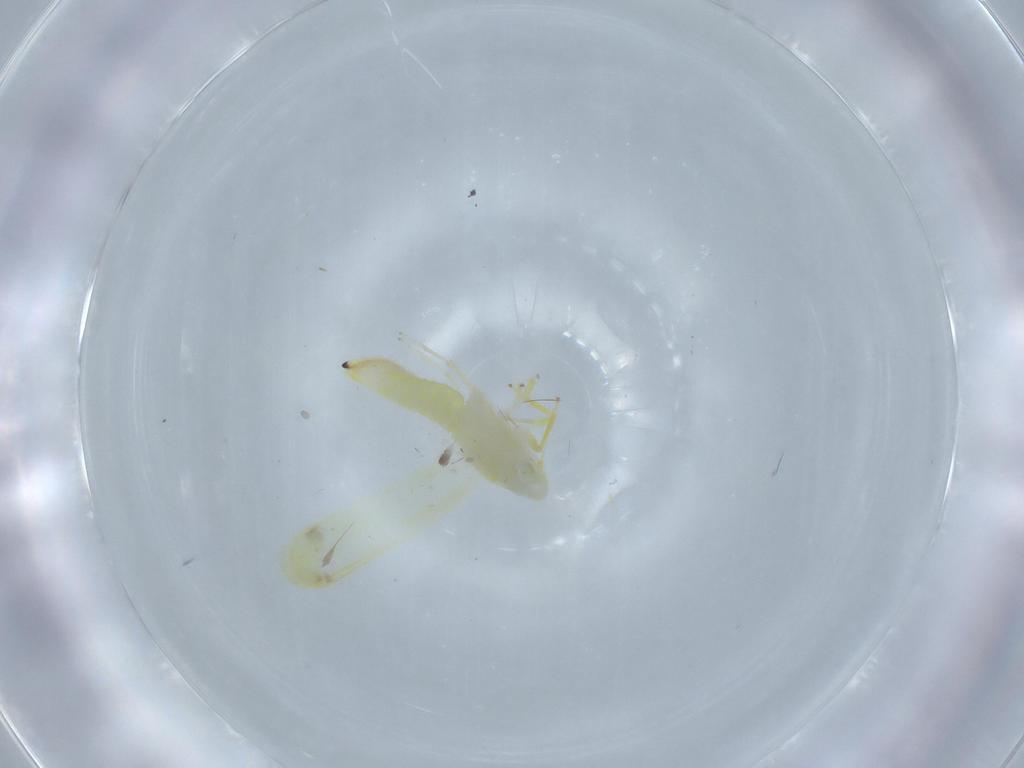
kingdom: Animalia
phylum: Arthropoda
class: Insecta
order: Hemiptera
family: Cicadellidae
